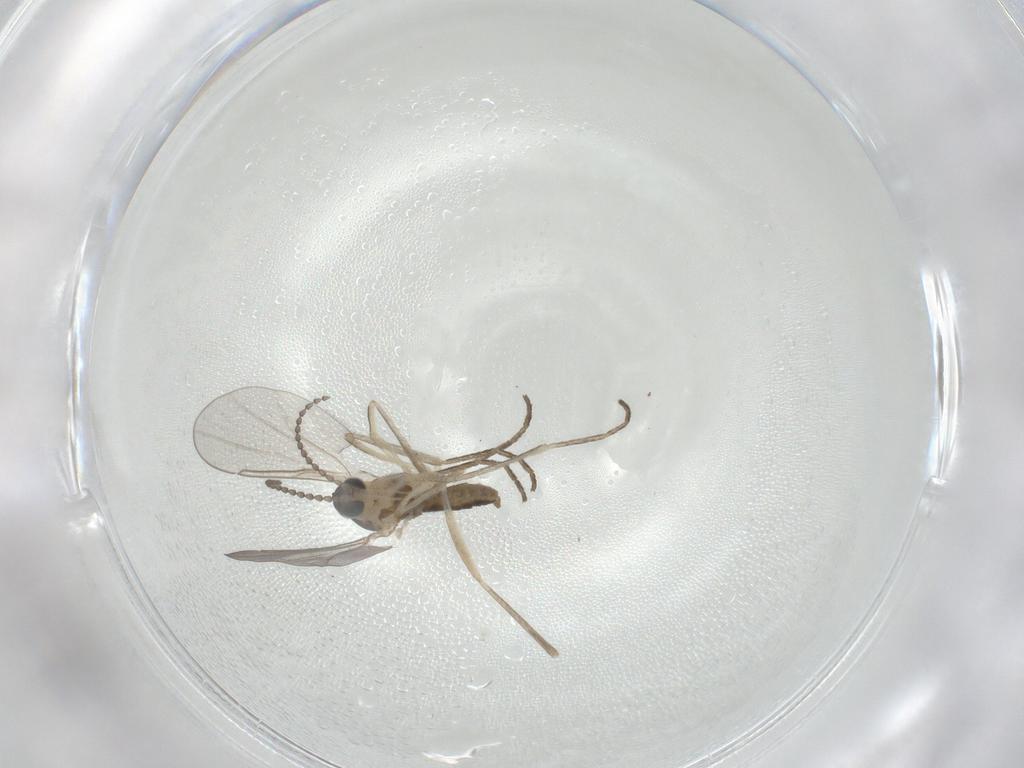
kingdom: Animalia
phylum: Arthropoda
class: Insecta
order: Diptera
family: Cecidomyiidae
